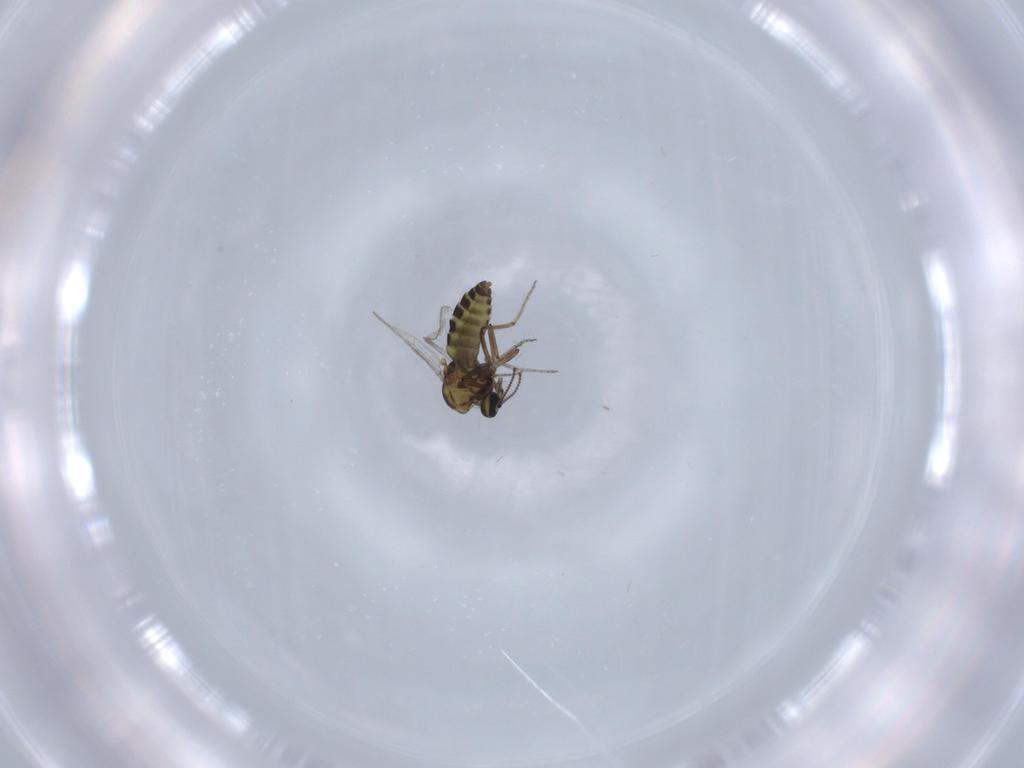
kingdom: Animalia
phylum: Arthropoda
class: Insecta
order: Diptera
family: Ceratopogonidae
